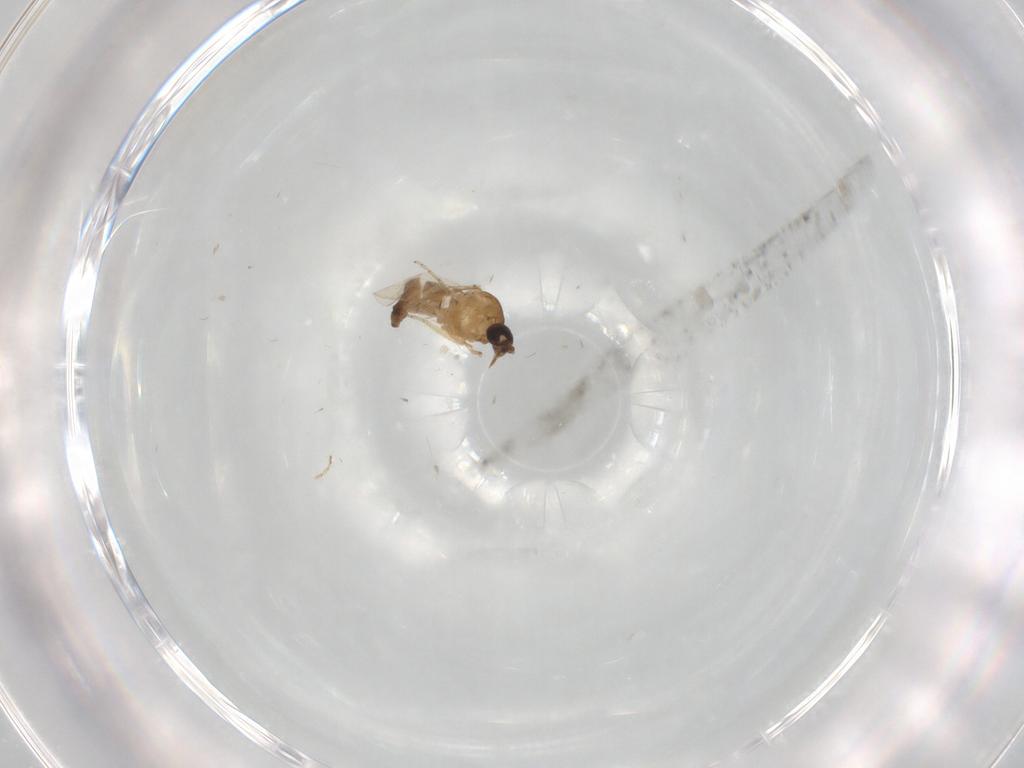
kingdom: Animalia
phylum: Arthropoda
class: Insecta
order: Diptera
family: Ceratopogonidae
